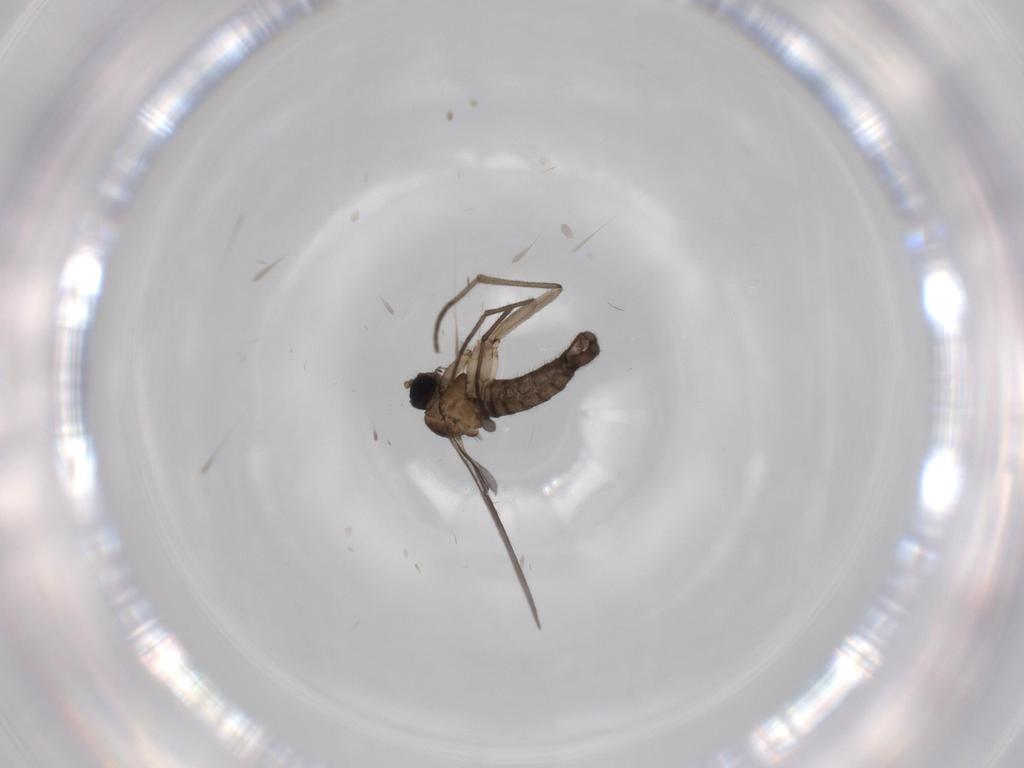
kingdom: Animalia
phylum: Arthropoda
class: Insecta
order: Diptera
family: Sciaridae
